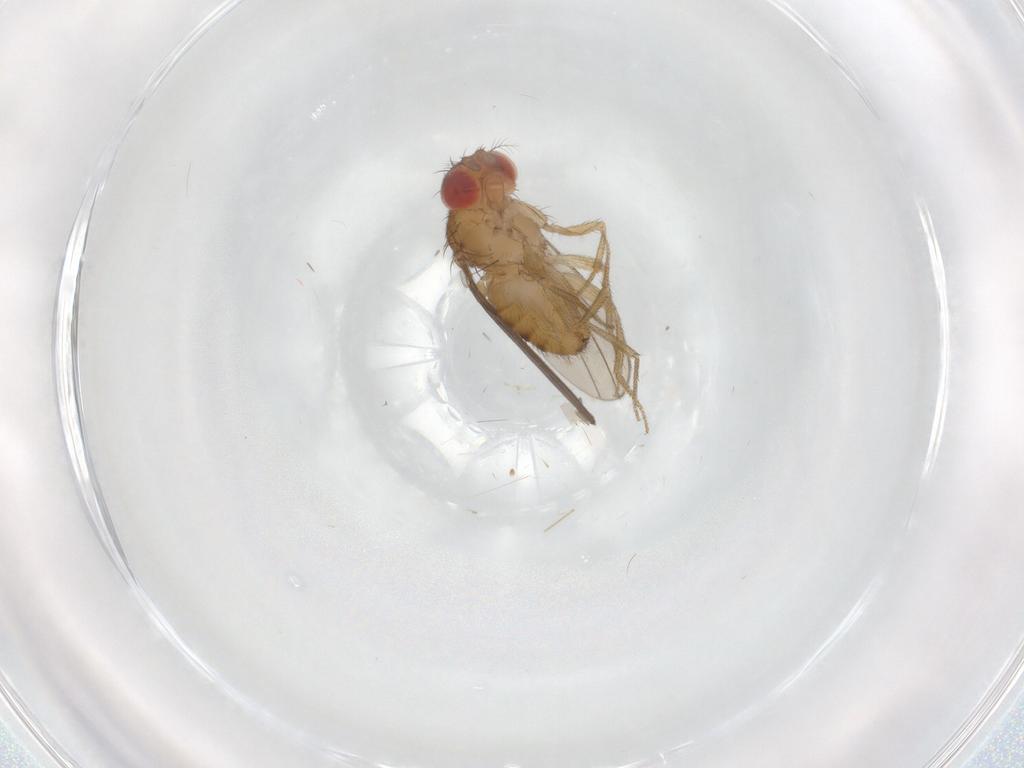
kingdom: Animalia
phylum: Arthropoda
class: Insecta
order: Diptera
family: Drosophilidae
